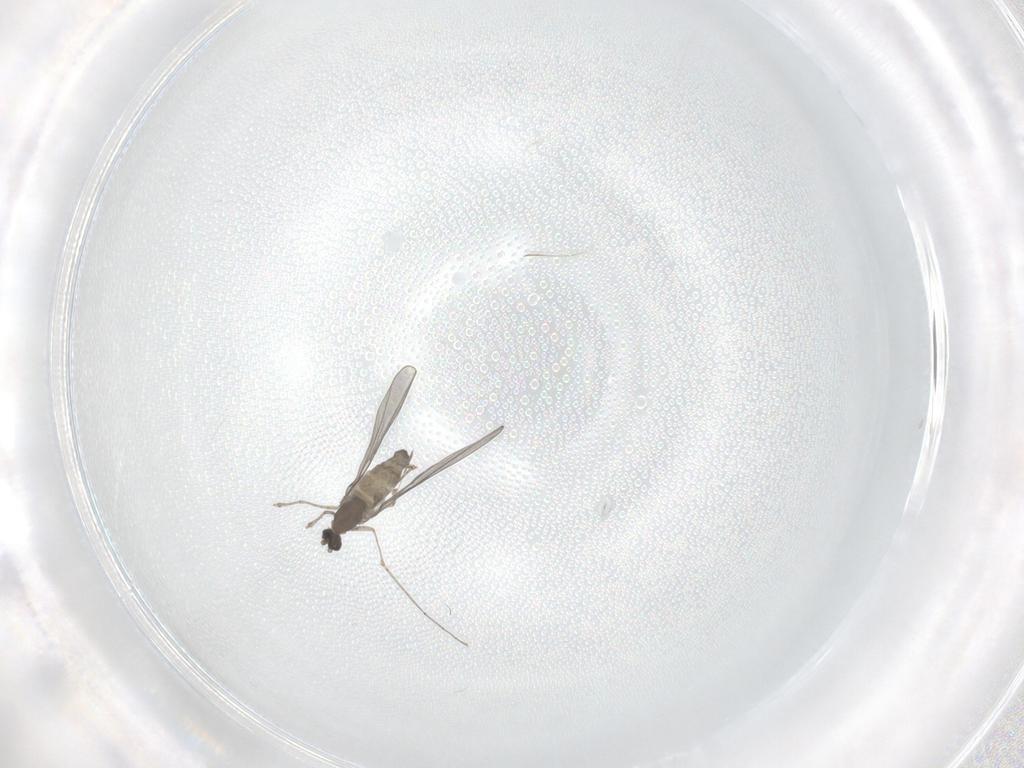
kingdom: Animalia
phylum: Arthropoda
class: Insecta
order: Diptera
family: Cecidomyiidae
